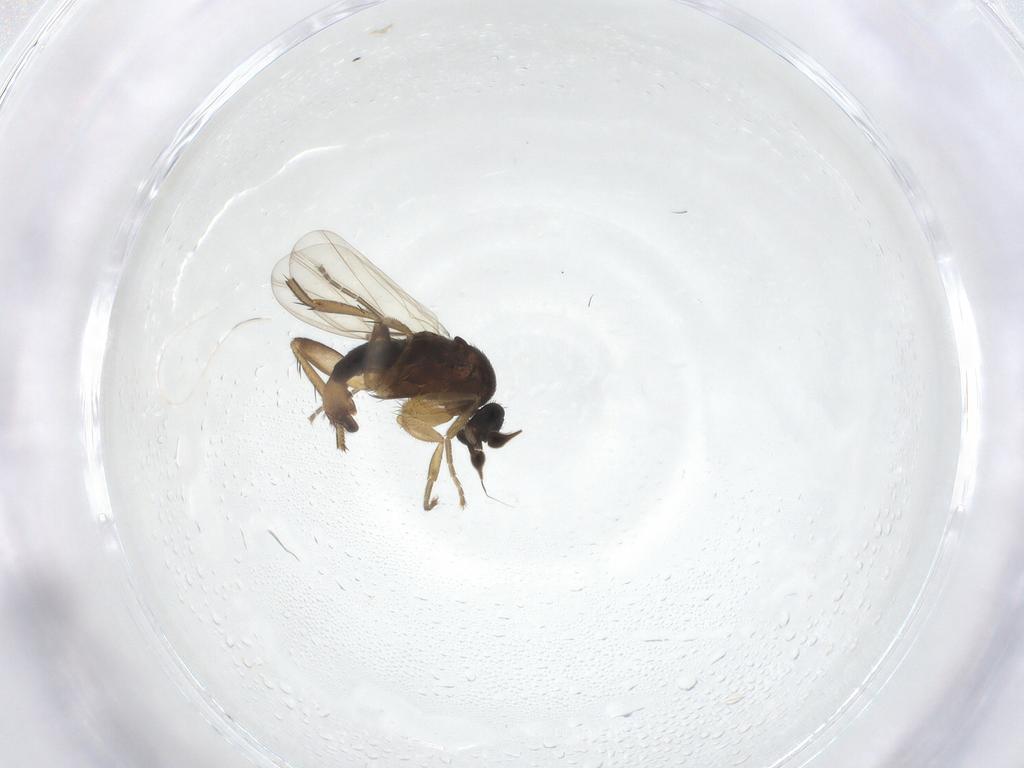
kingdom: Animalia
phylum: Arthropoda
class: Insecta
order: Diptera
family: Phoridae
